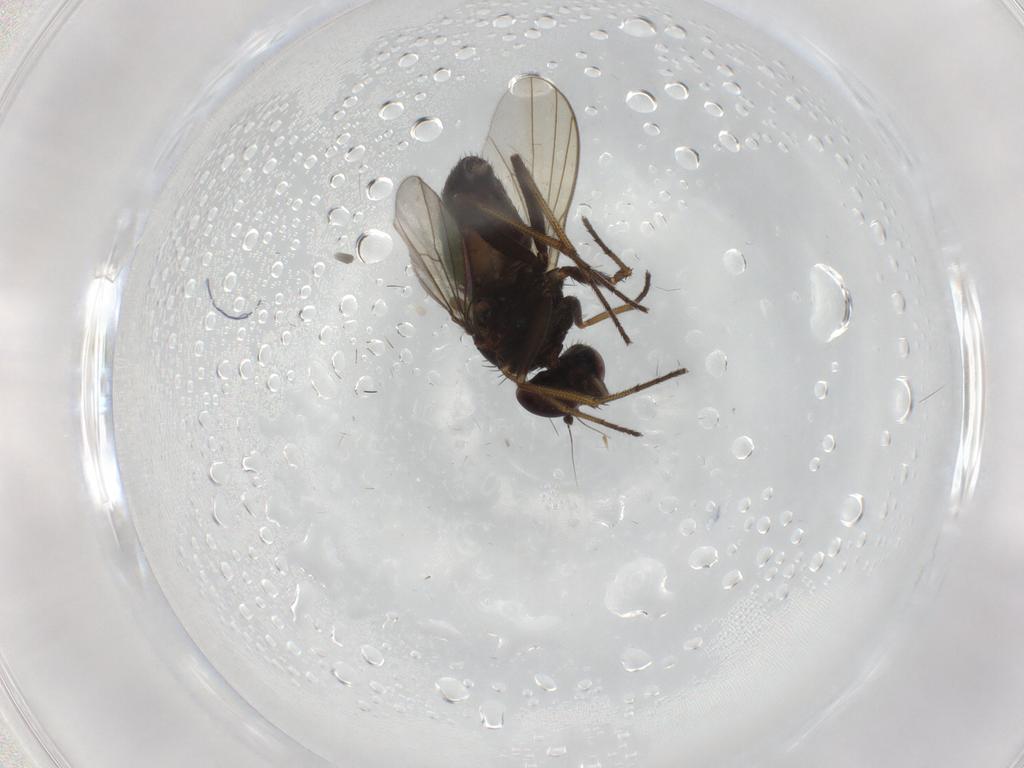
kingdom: Animalia
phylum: Arthropoda
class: Insecta
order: Diptera
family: Dolichopodidae
